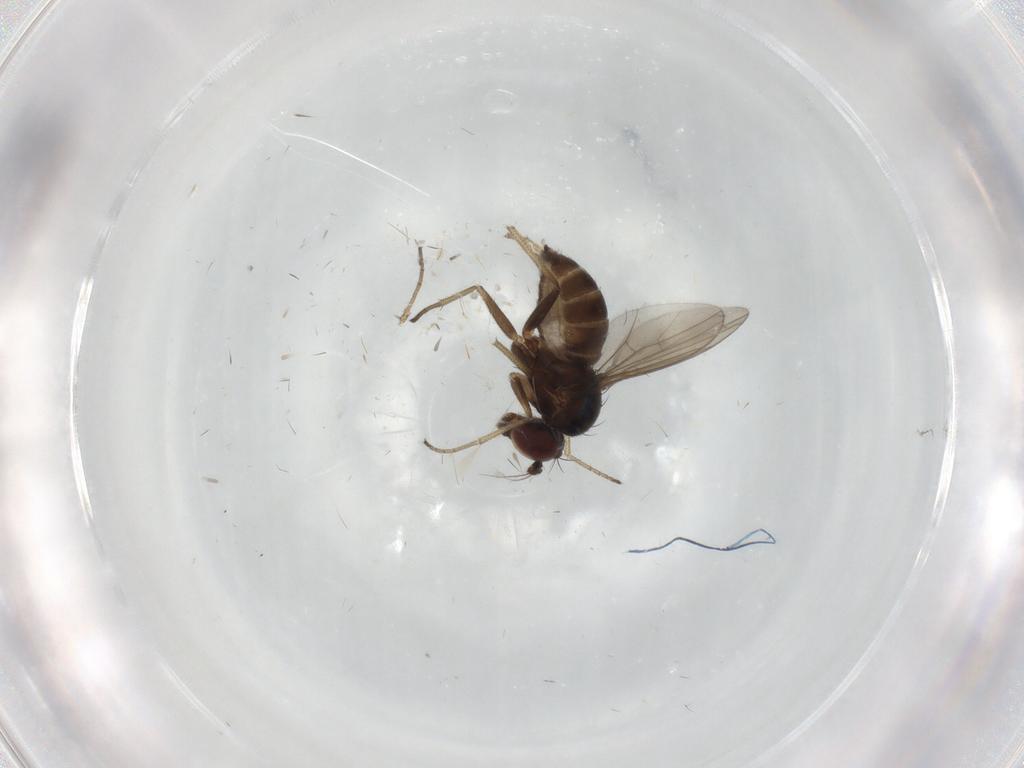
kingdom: Animalia
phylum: Arthropoda
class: Insecta
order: Diptera
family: Dolichopodidae
